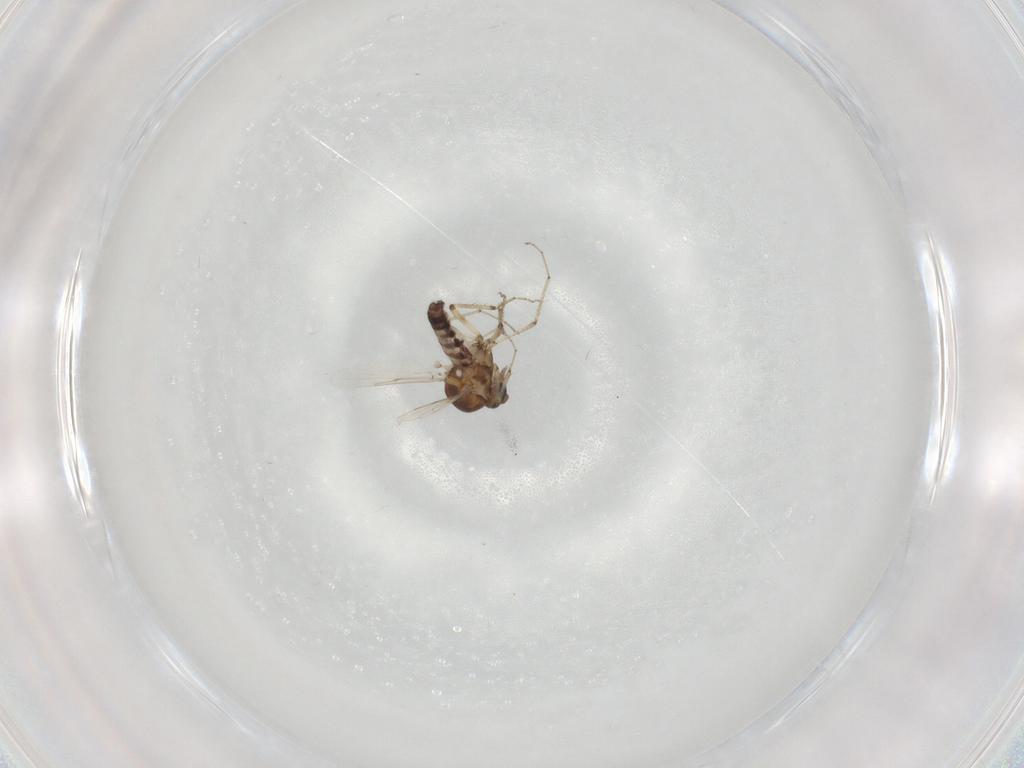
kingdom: Animalia
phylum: Arthropoda
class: Insecta
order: Diptera
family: Ceratopogonidae
